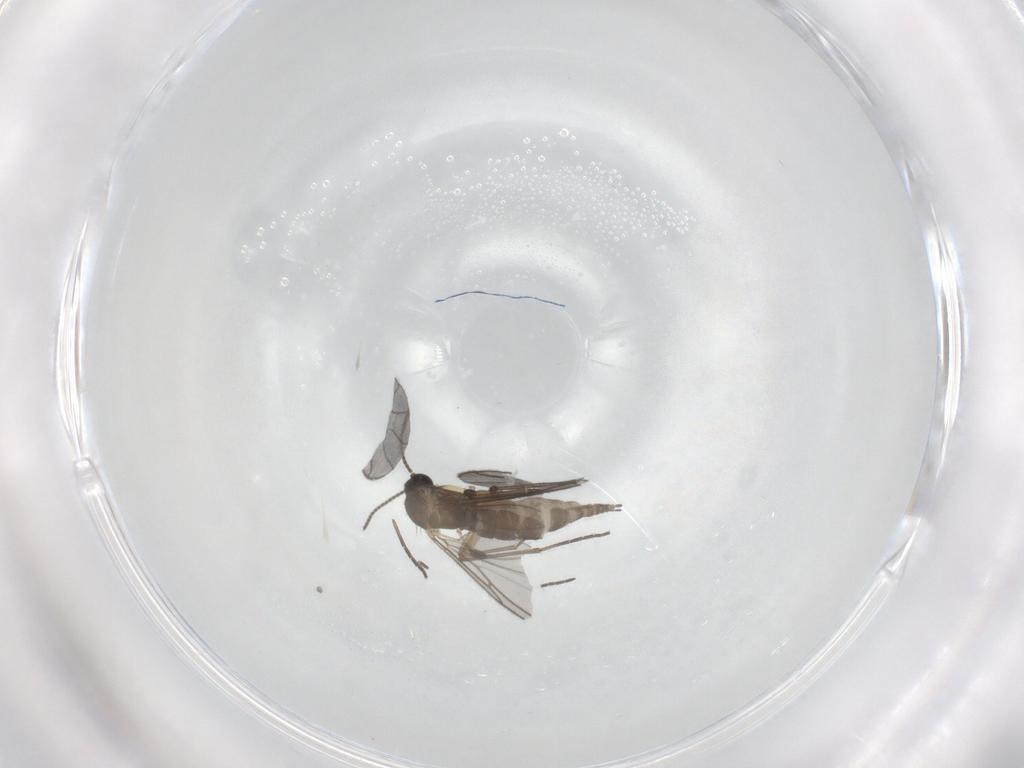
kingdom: Animalia
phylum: Arthropoda
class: Insecta
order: Diptera
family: Sciaridae
